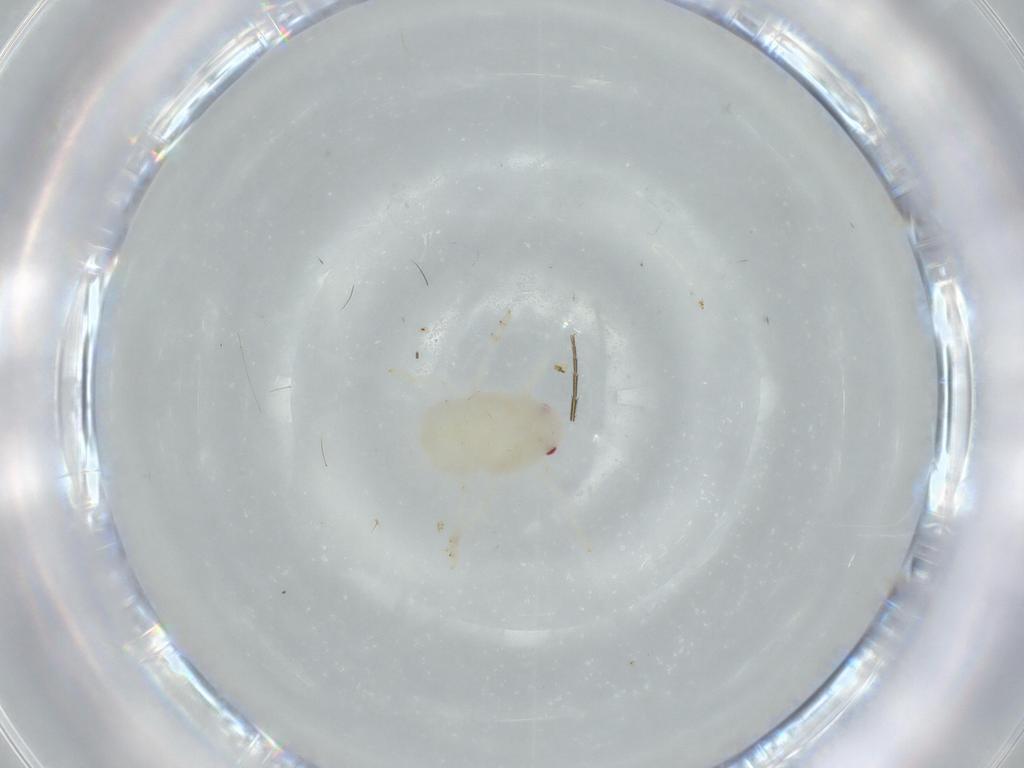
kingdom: Animalia
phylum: Arthropoda
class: Insecta
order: Hemiptera
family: Flatidae
